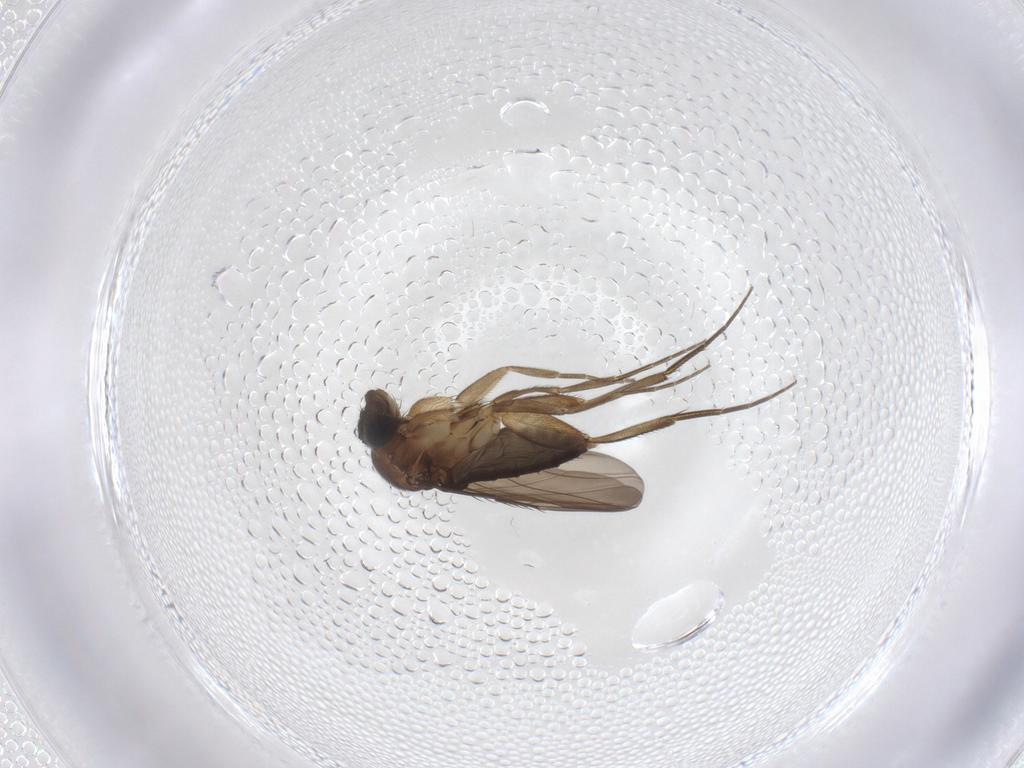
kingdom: Animalia
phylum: Arthropoda
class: Insecta
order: Diptera
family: Phoridae
